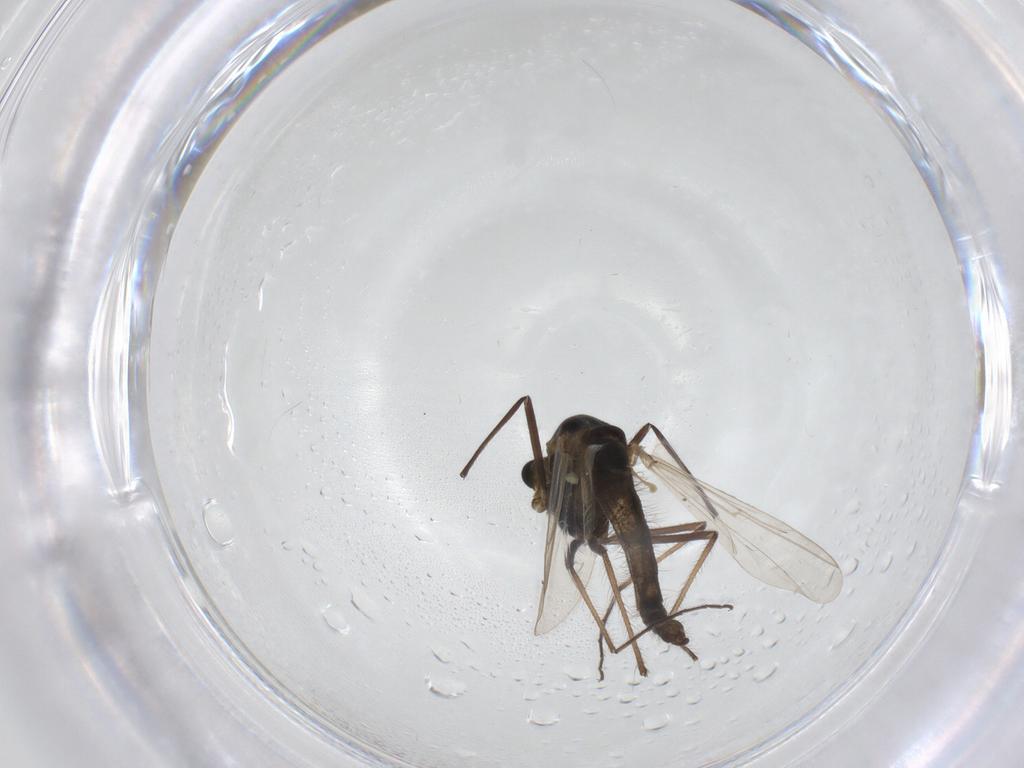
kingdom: Animalia
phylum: Arthropoda
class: Insecta
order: Diptera
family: Chironomidae
